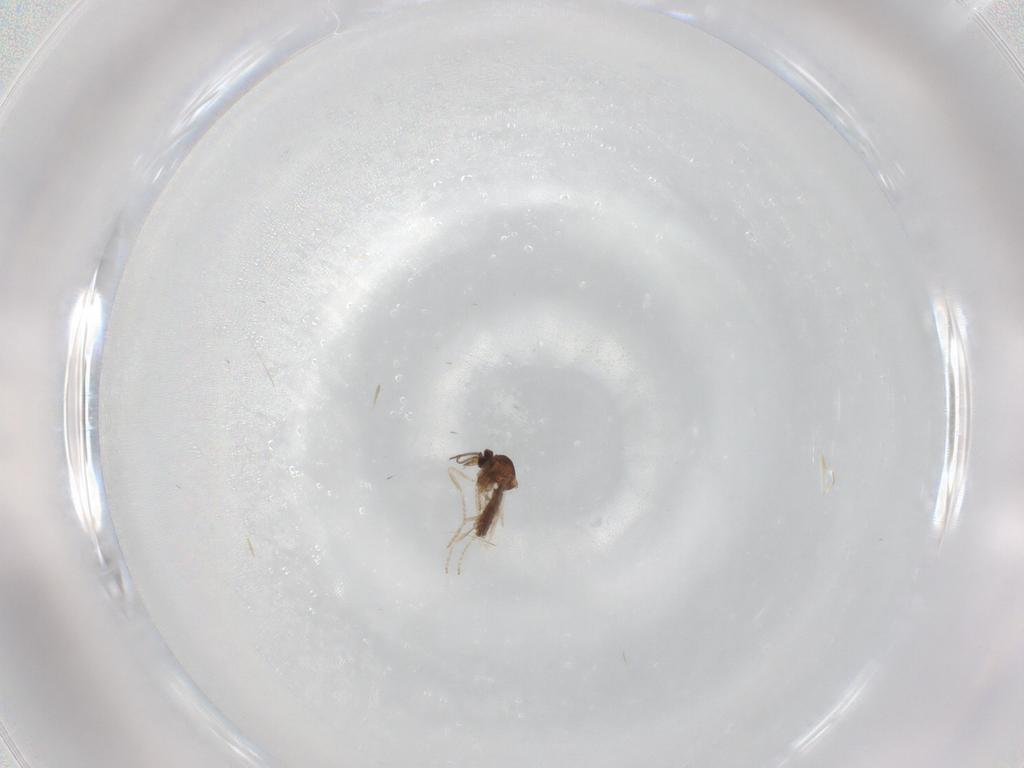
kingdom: Animalia
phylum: Arthropoda
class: Insecta
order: Diptera
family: Ceratopogonidae
